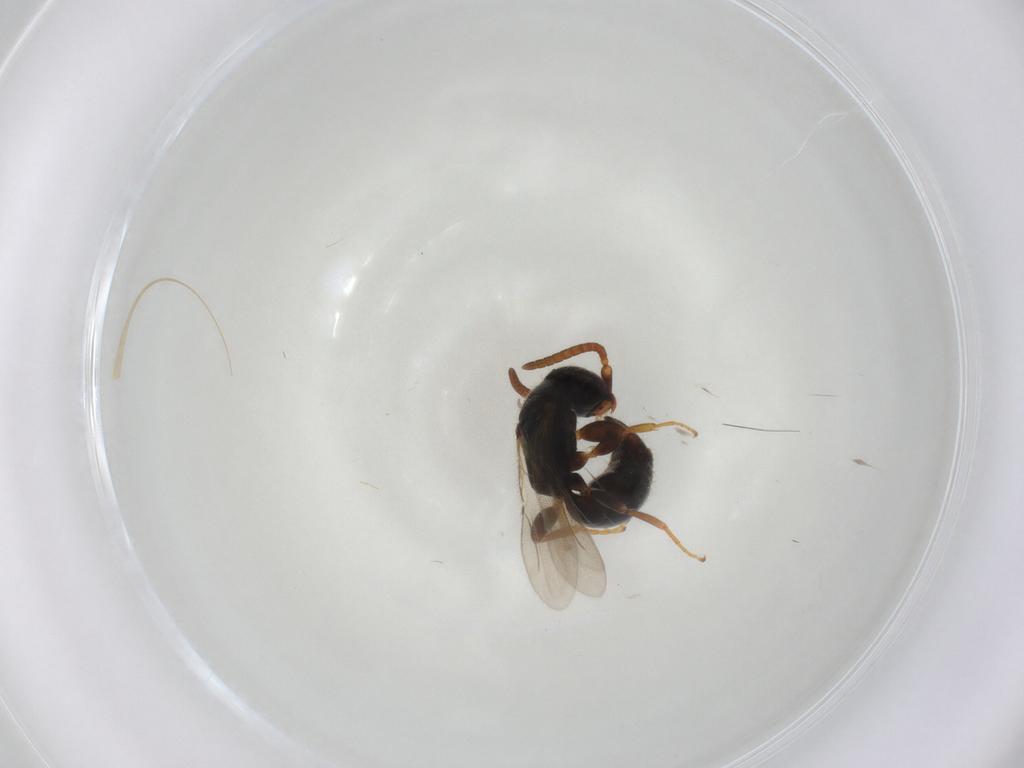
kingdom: Animalia
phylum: Arthropoda
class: Insecta
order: Hymenoptera
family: Bethylidae
